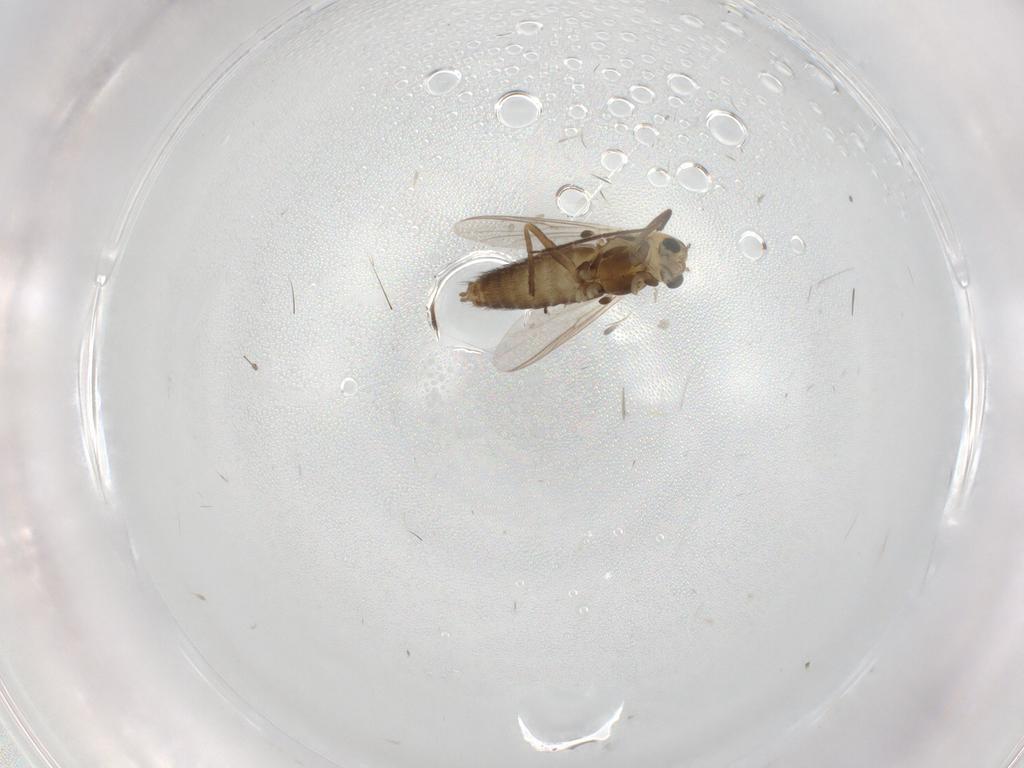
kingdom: Animalia
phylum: Arthropoda
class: Insecta
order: Diptera
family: Chironomidae
